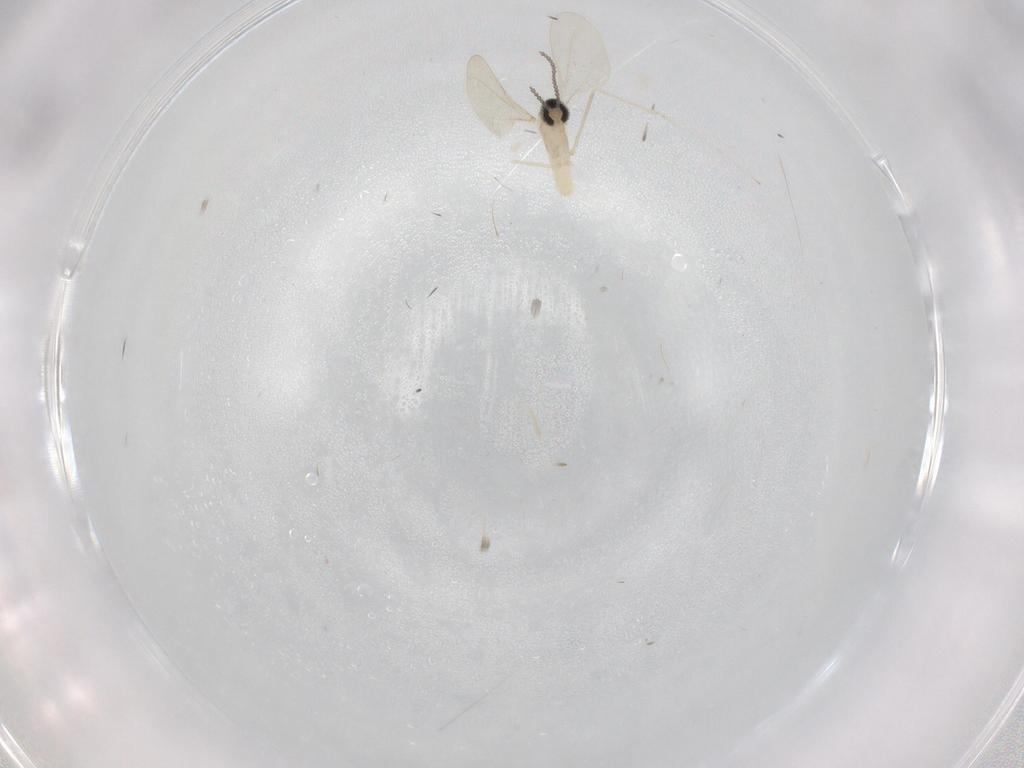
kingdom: Animalia
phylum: Arthropoda
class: Insecta
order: Diptera
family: Cecidomyiidae
